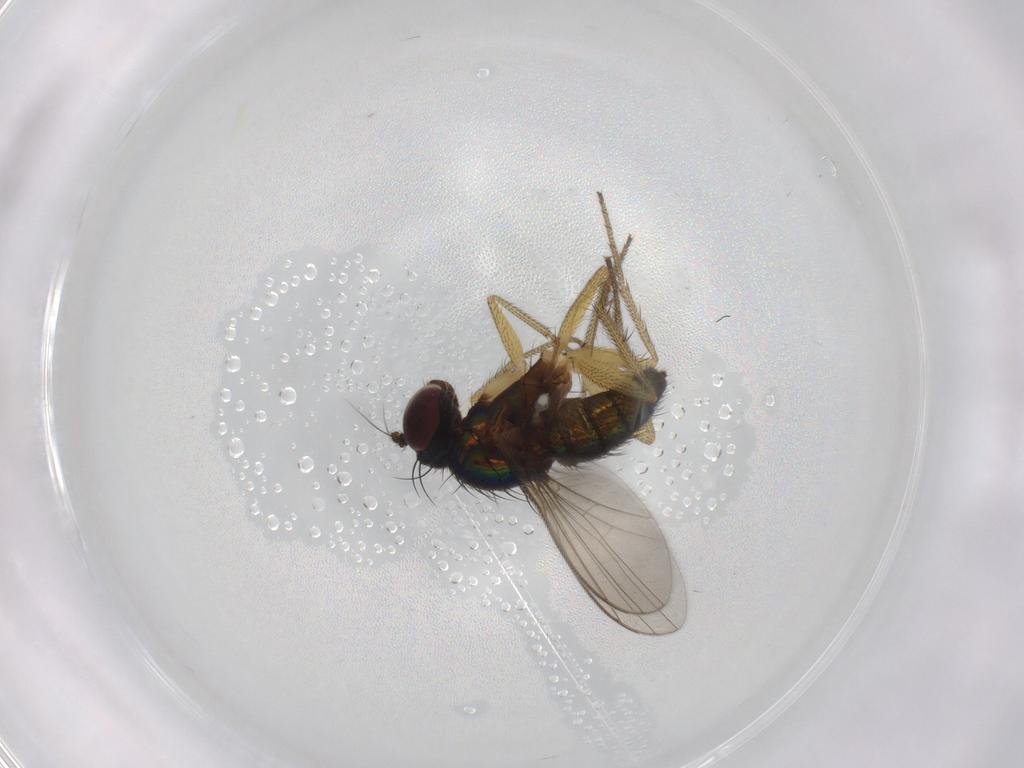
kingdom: Animalia
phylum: Arthropoda
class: Insecta
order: Diptera
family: Chironomidae
